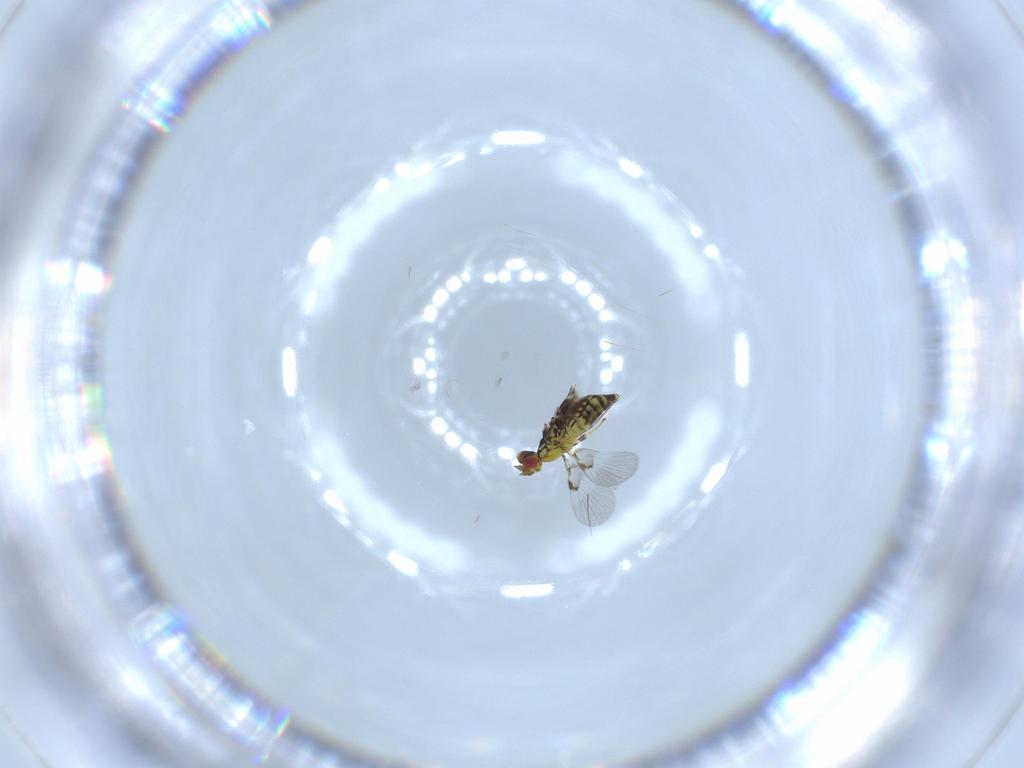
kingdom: Animalia
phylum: Arthropoda
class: Insecta
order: Hymenoptera
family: Trichogrammatidae
